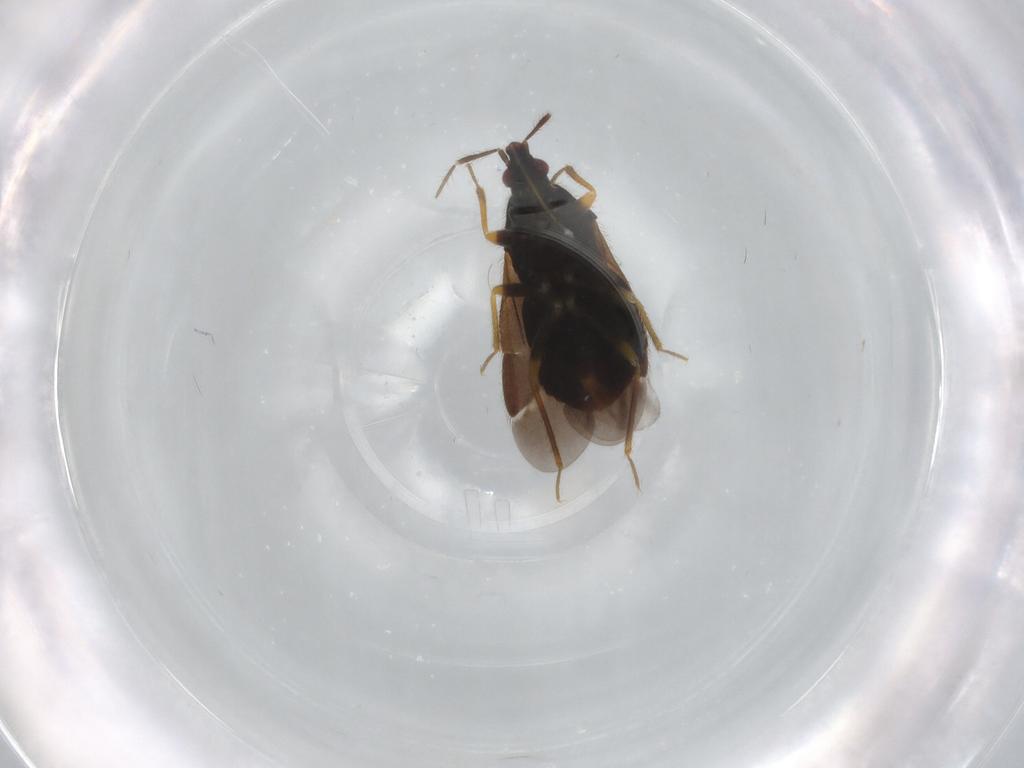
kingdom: Animalia
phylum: Arthropoda
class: Insecta
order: Hemiptera
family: Lasiochilidae
